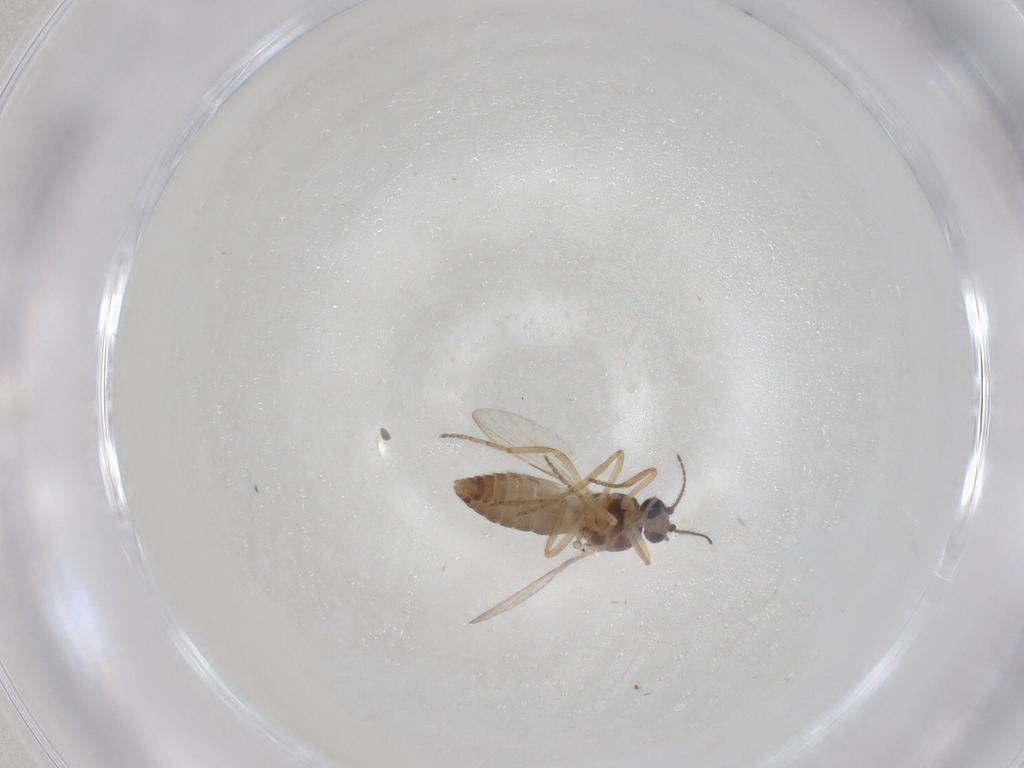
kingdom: Animalia
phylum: Arthropoda
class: Insecta
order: Diptera
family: Ceratopogonidae
